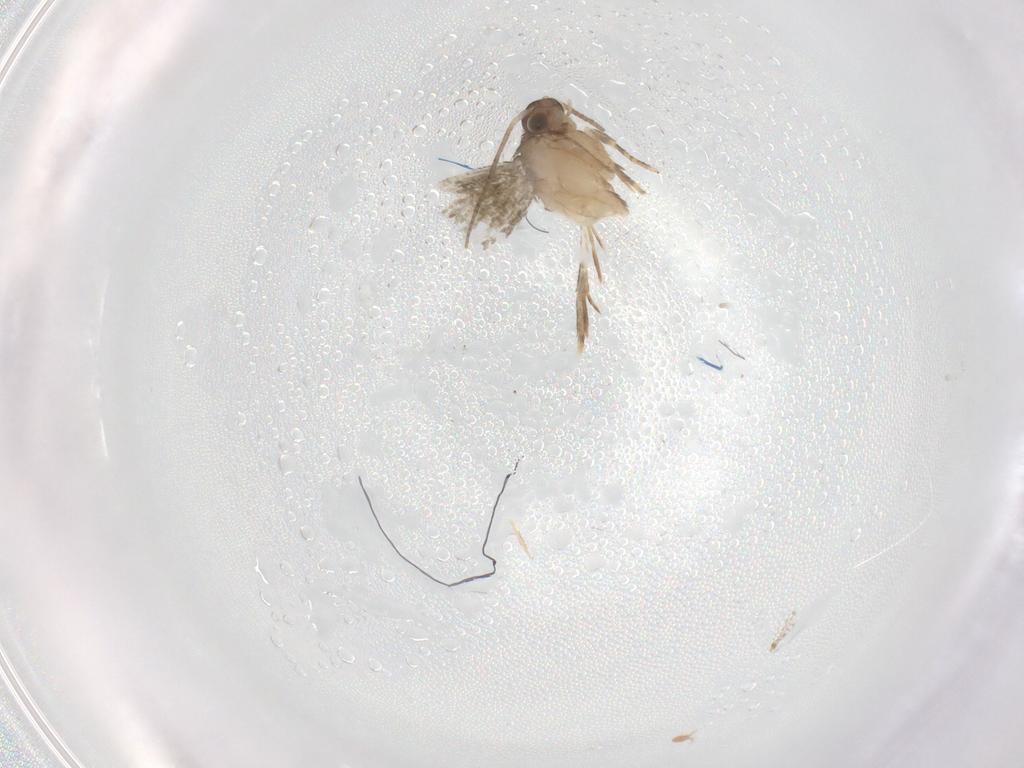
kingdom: Animalia
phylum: Arthropoda
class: Insecta
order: Lepidoptera
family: Tineidae
